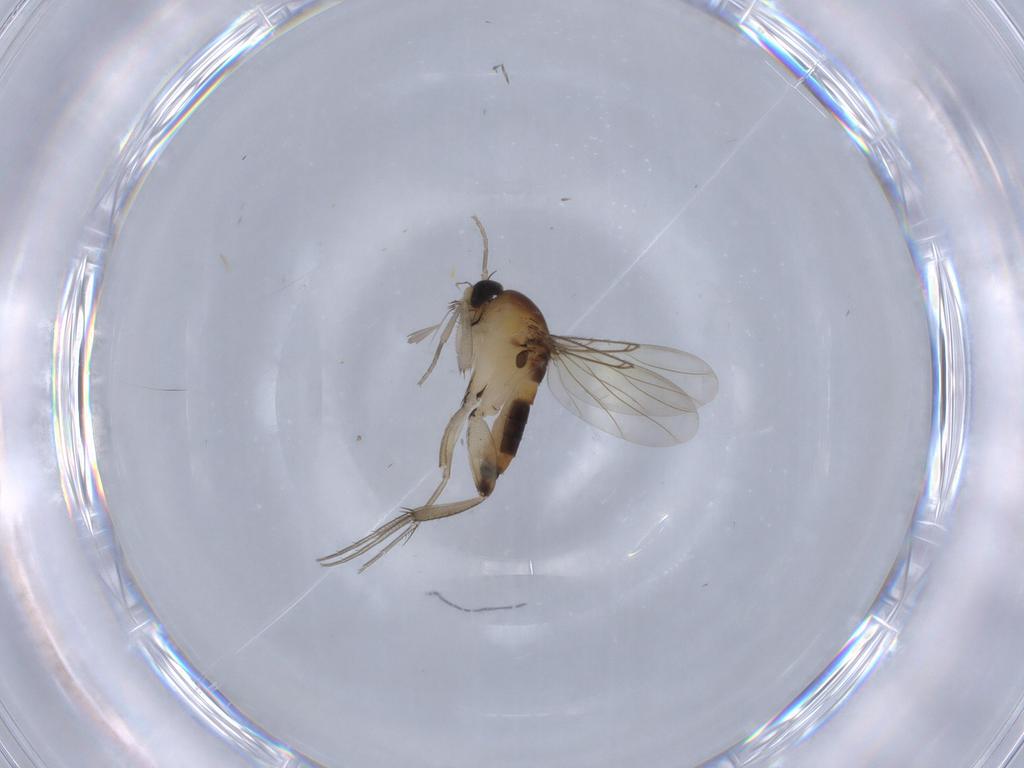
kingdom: Animalia
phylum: Arthropoda
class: Insecta
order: Diptera
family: Phoridae
